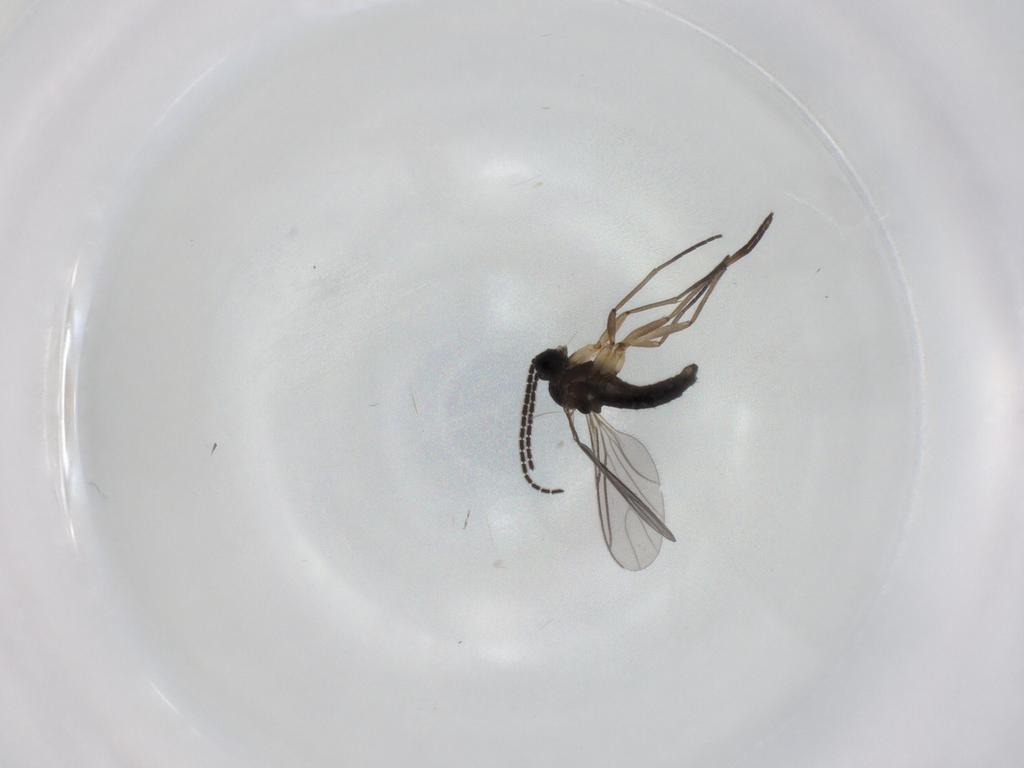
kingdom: Animalia
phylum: Arthropoda
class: Insecta
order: Diptera
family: Sciaridae
